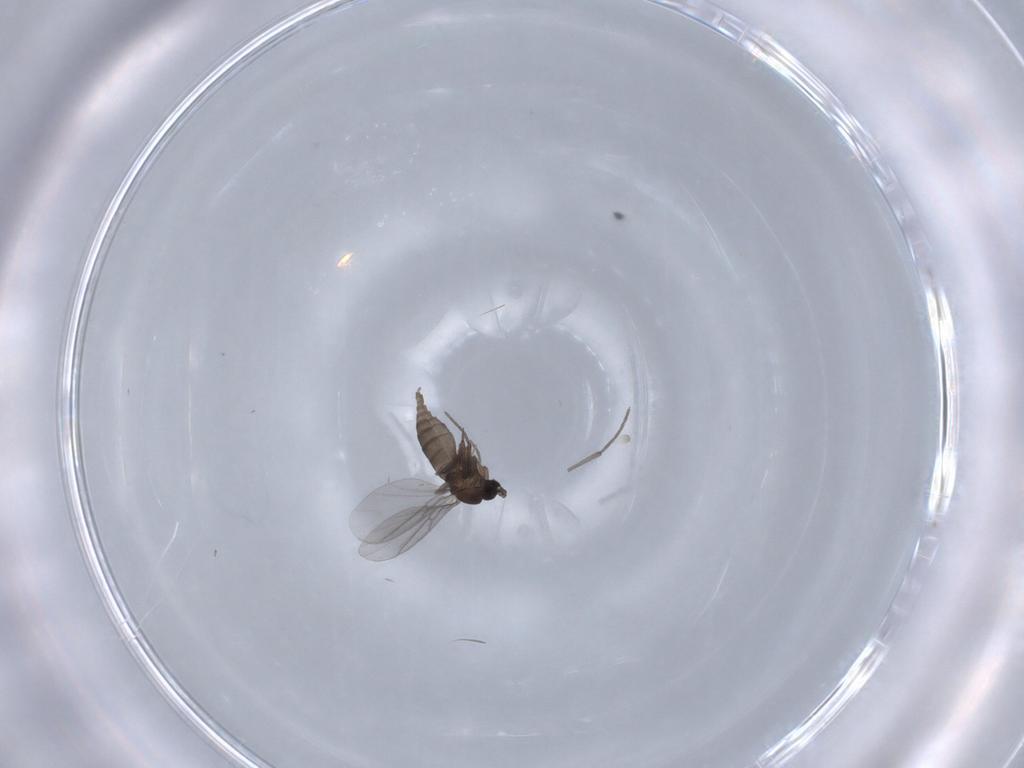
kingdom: Animalia
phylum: Arthropoda
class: Insecta
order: Diptera
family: Sciaridae
